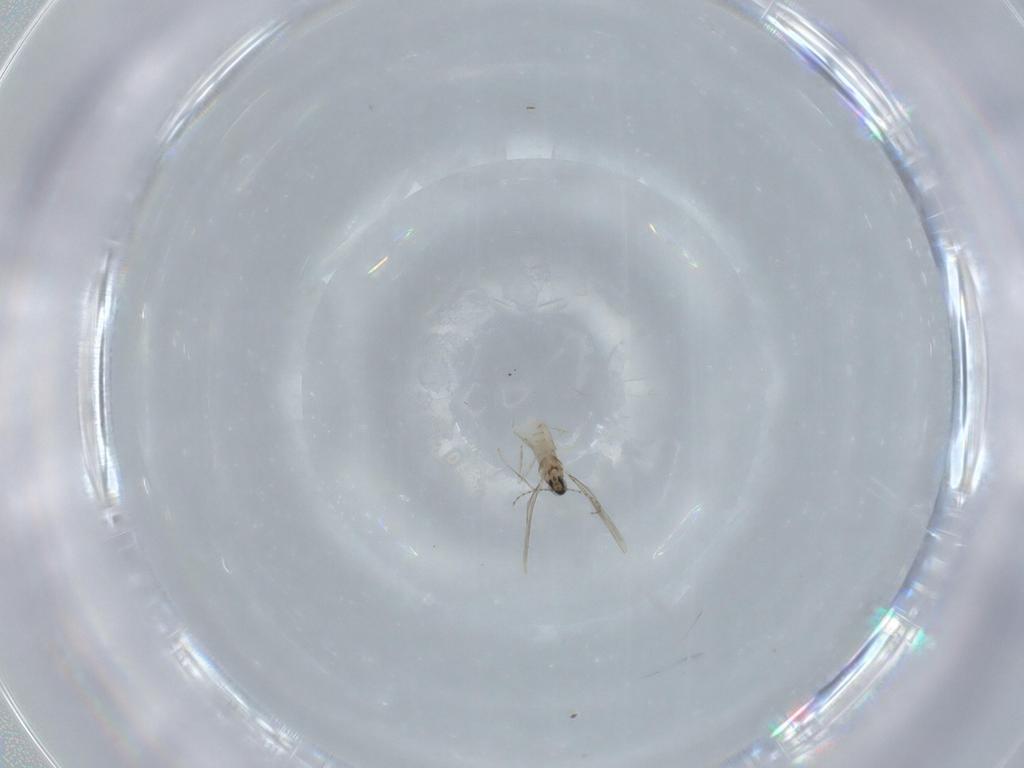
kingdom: Animalia
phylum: Arthropoda
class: Insecta
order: Diptera
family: Cecidomyiidae
